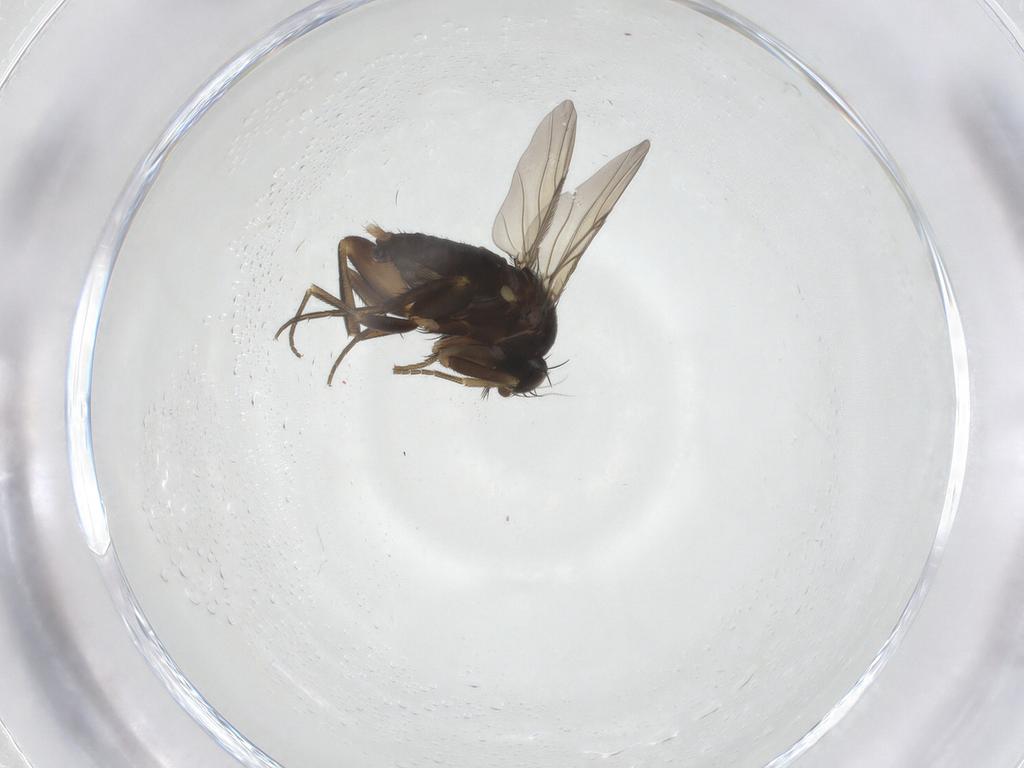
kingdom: Animalia
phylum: Arthropoda
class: Insecta
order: Diptera
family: Phoridae
